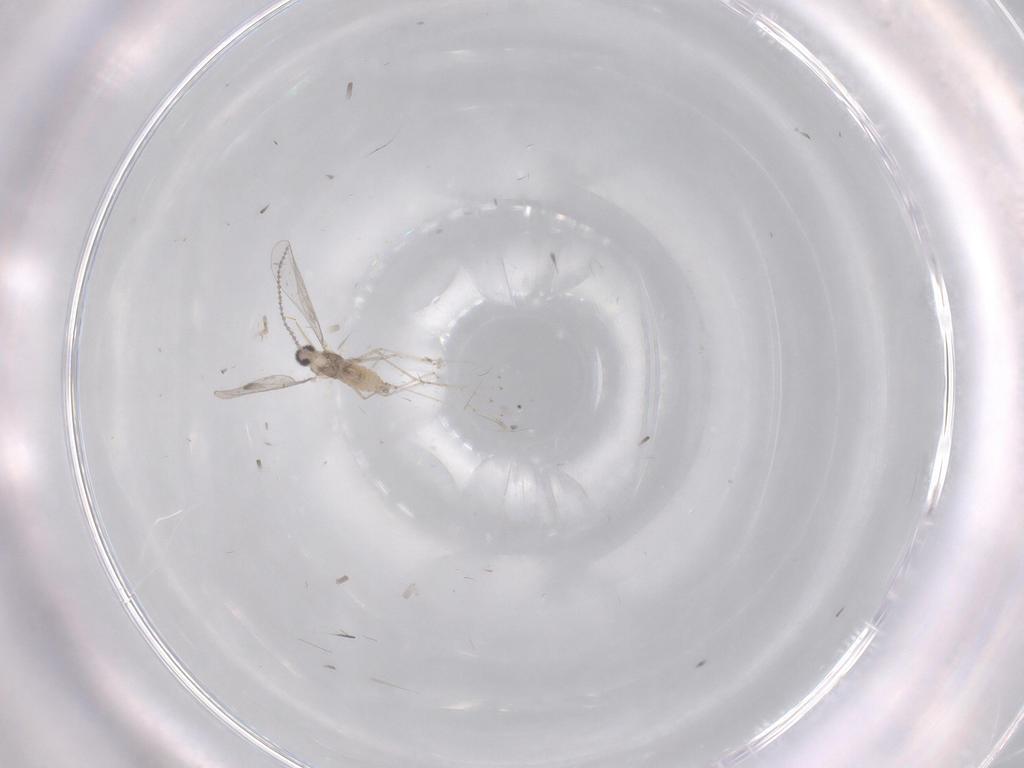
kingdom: Animalia
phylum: Arthropoda
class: Insecta
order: Diptera
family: Cecidomyiidae
